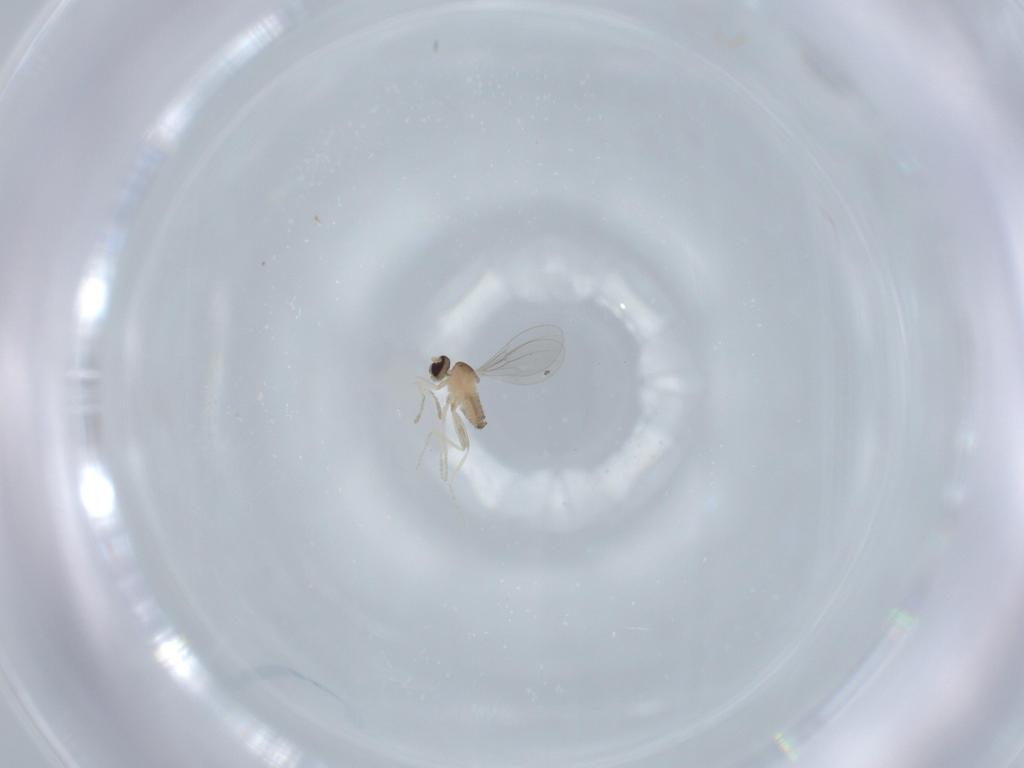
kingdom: Animalia
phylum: Arthropoda
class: Insecta
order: Diptera
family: Cecidomyiidae
